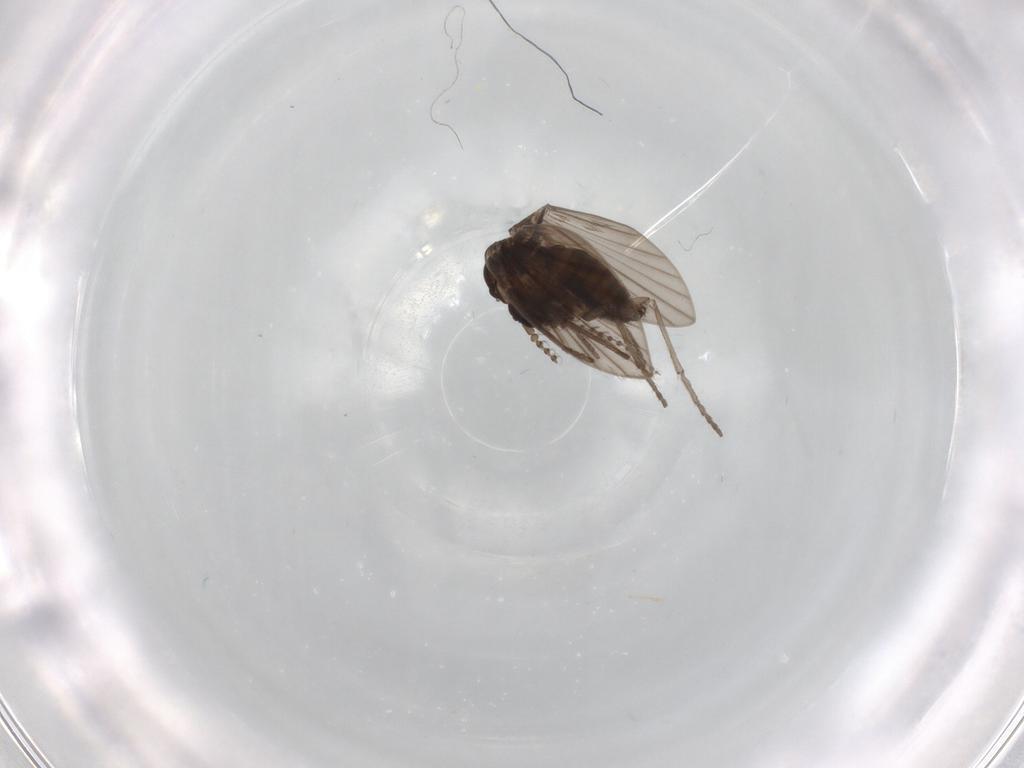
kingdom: Animalia
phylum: Arthropoda
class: Insecta
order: Diptera
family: Psychodidae
